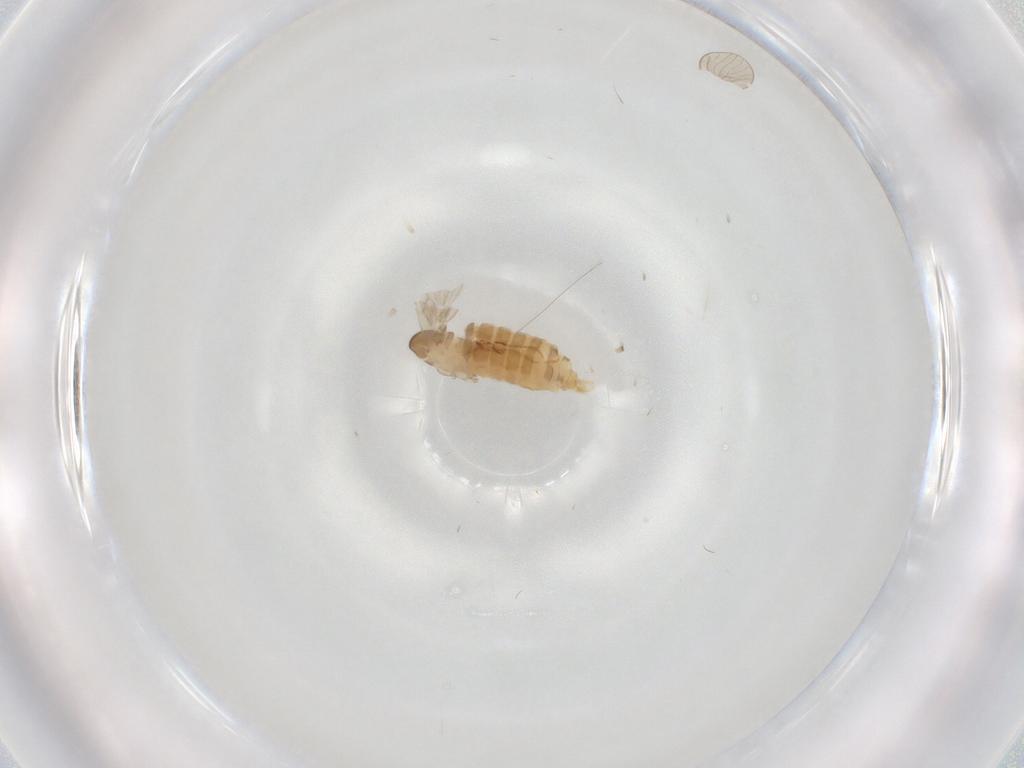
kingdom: Animalia
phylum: Arthropoda
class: Insecta
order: Diptera
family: Psychodidae
